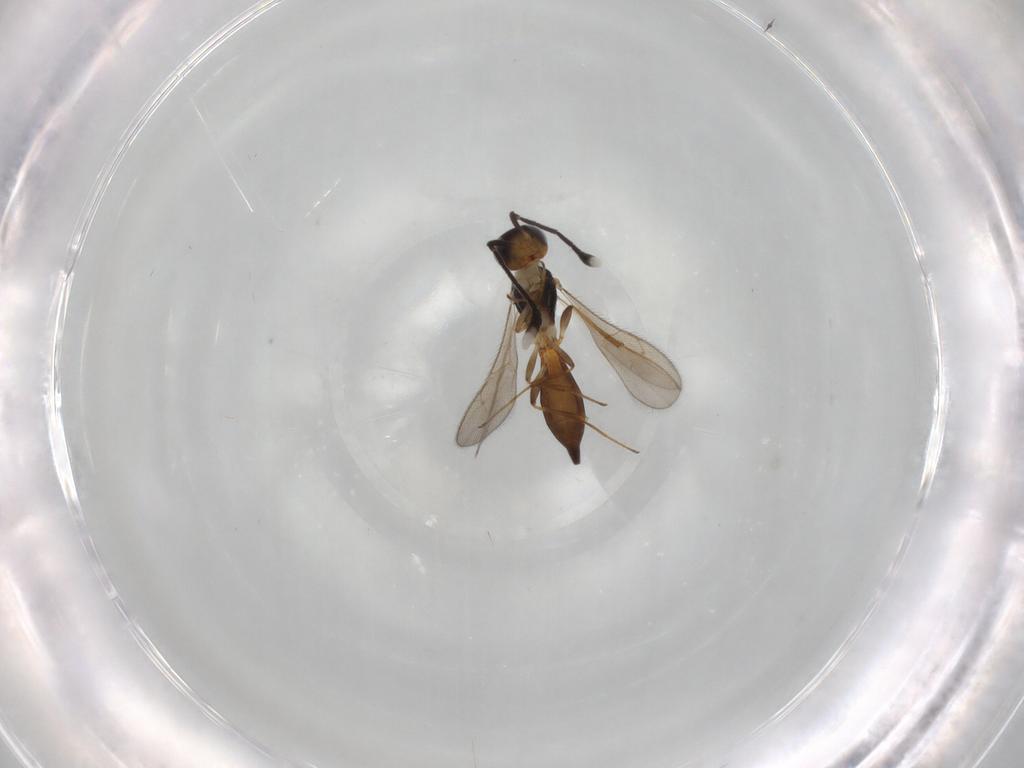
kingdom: Animalia
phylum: Arthropoda
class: Insecta
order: Hymenoptera
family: Scelionidae
